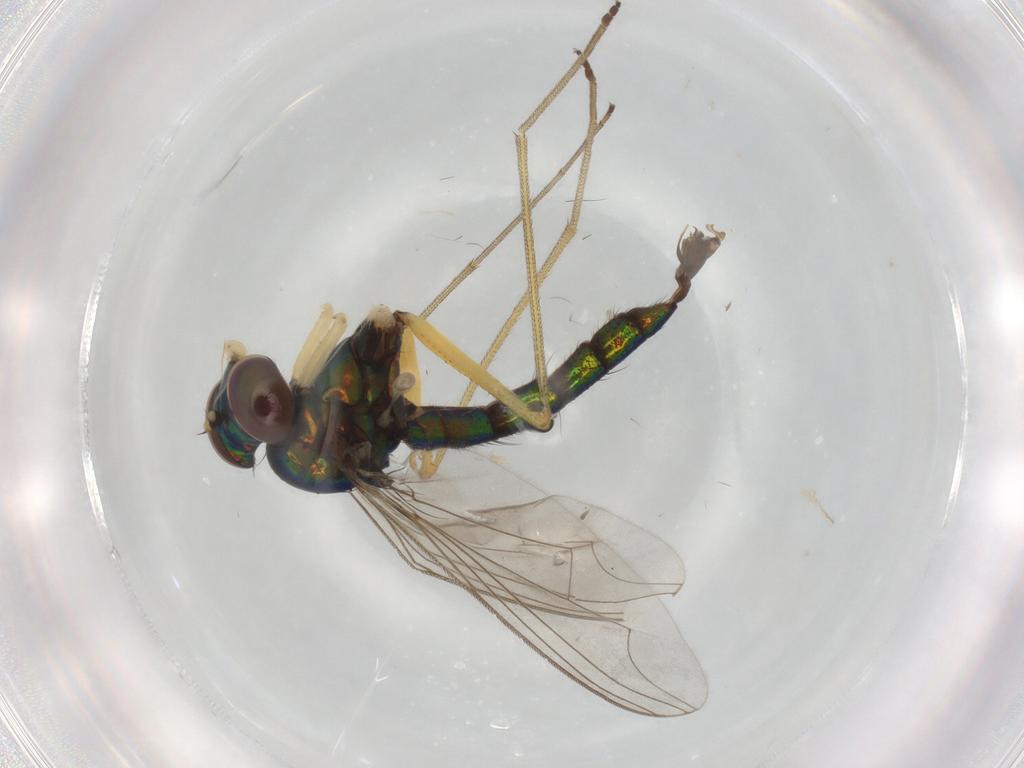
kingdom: Animalia
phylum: Arthropoda
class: Insecta
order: Diptera
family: Dolichopodidae
